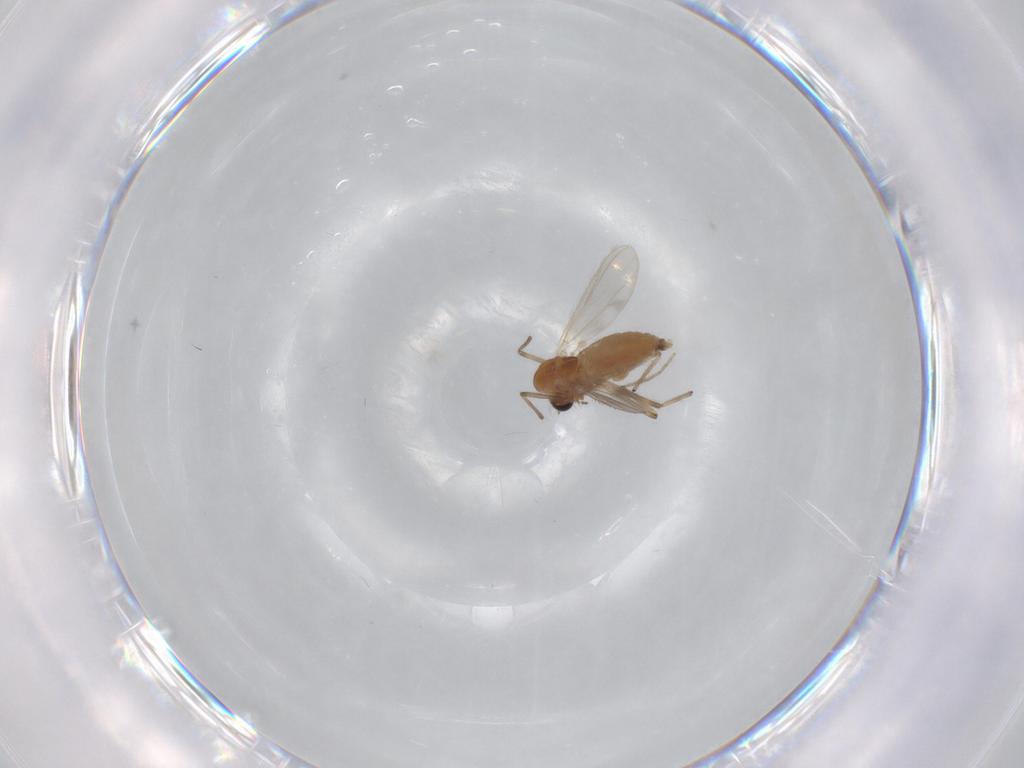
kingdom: Animalia
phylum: Arthropoda
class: Insecta
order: Diptera
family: Chironomidae
